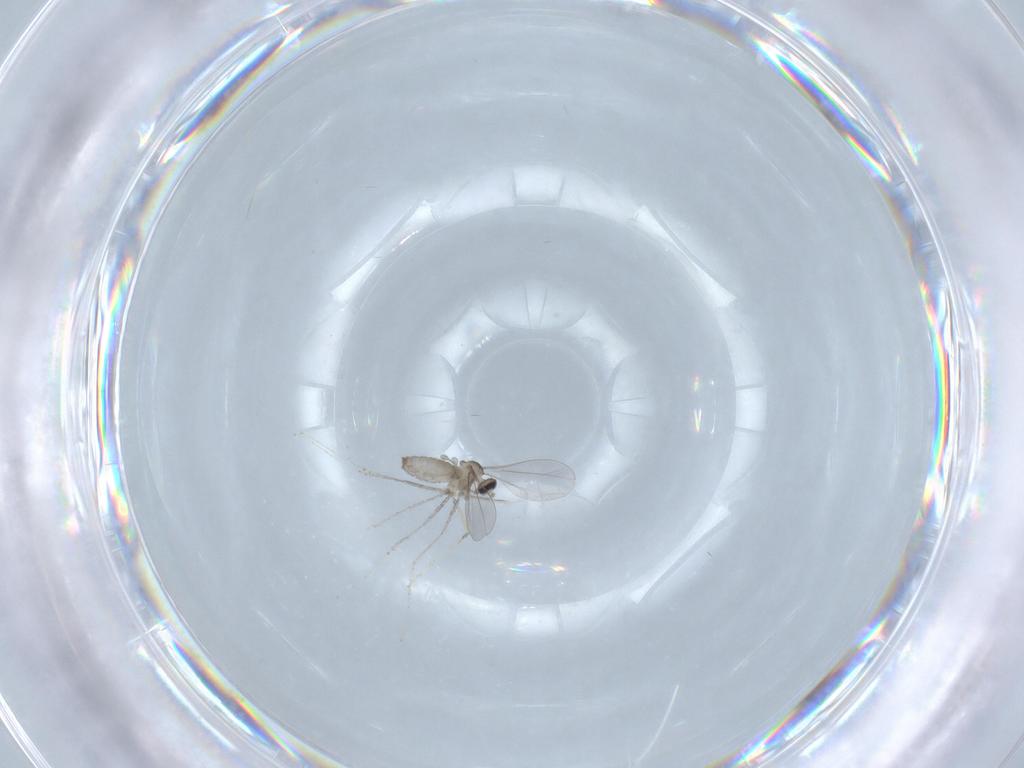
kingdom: Animalia
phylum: Arthropoda
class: Insecta
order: Diptera
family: Cecidomyiidae
